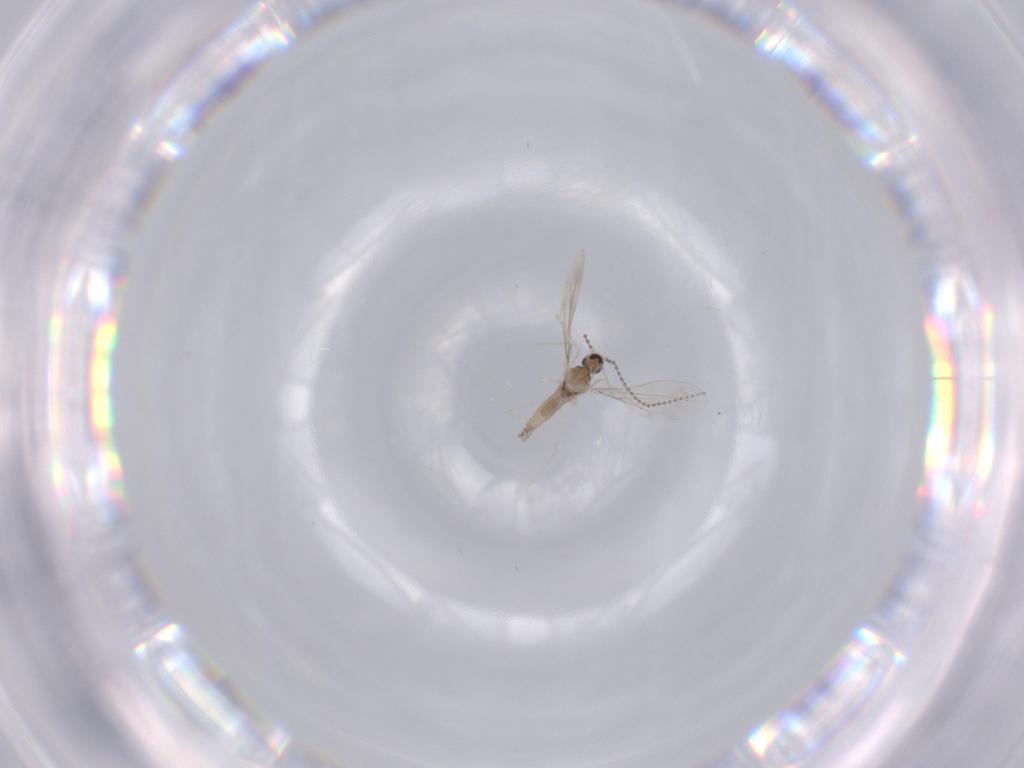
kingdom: Animalia
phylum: Arthropoda
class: Insecta
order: Diptera
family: Cecidomyiidae
